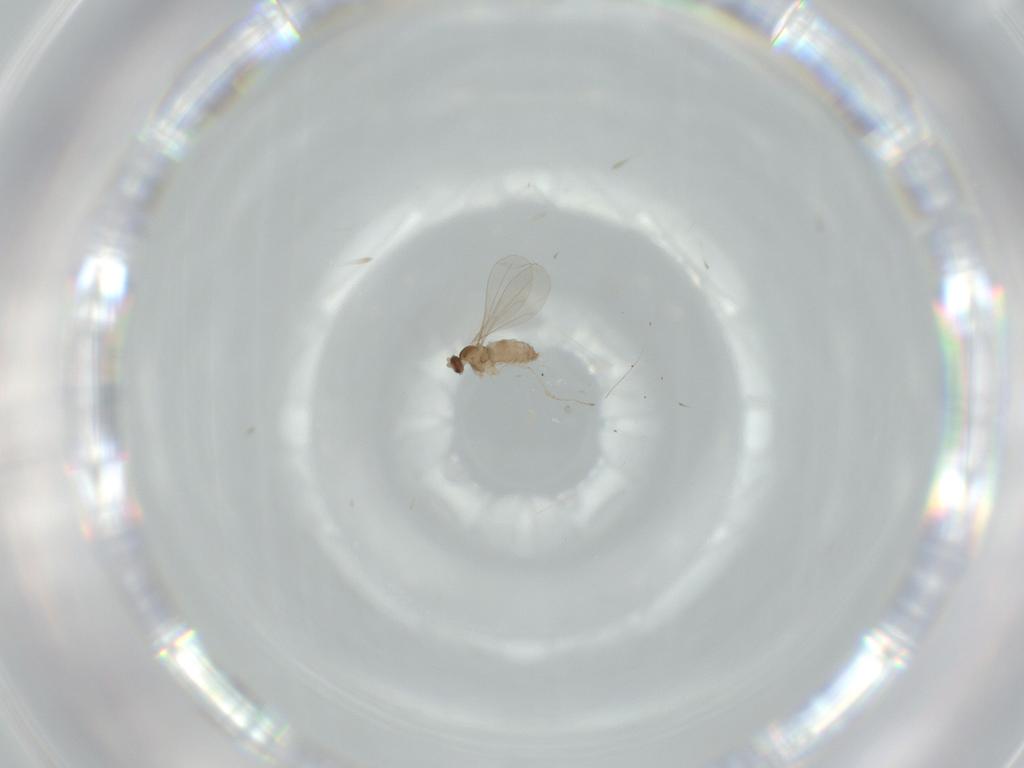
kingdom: Animalia
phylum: Arthropoda
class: Insecta
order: Diptera
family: Cecidomyiidae
